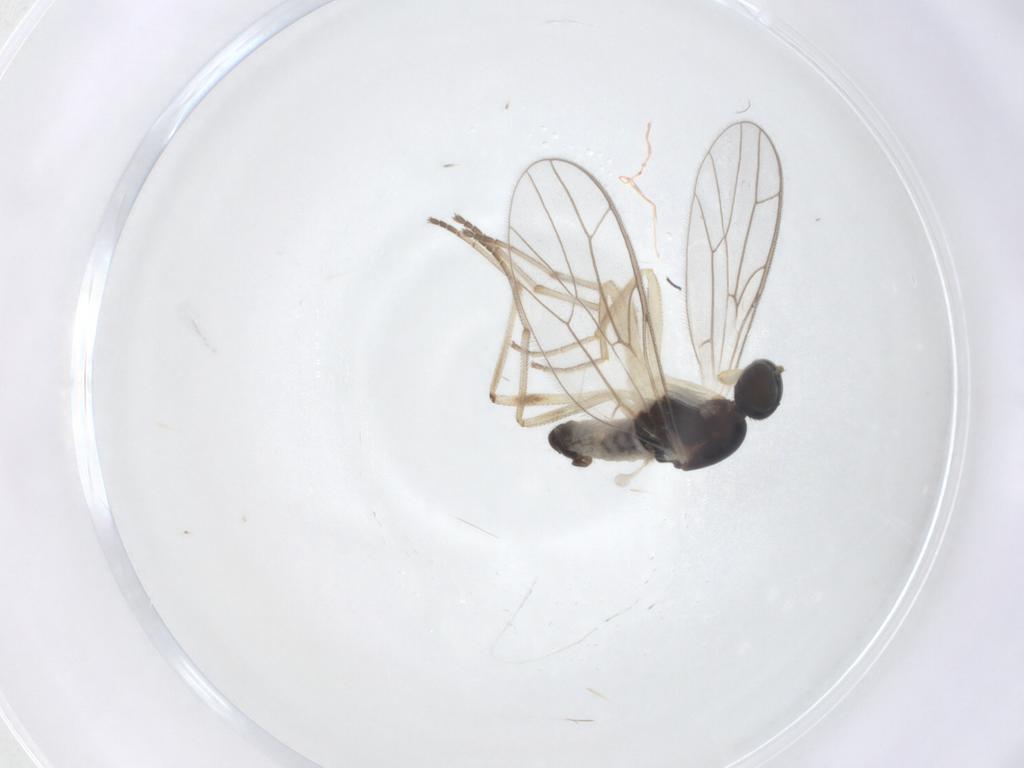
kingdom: Animalia
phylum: Arthropoda
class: Insecta
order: Diptera
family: Empididae
